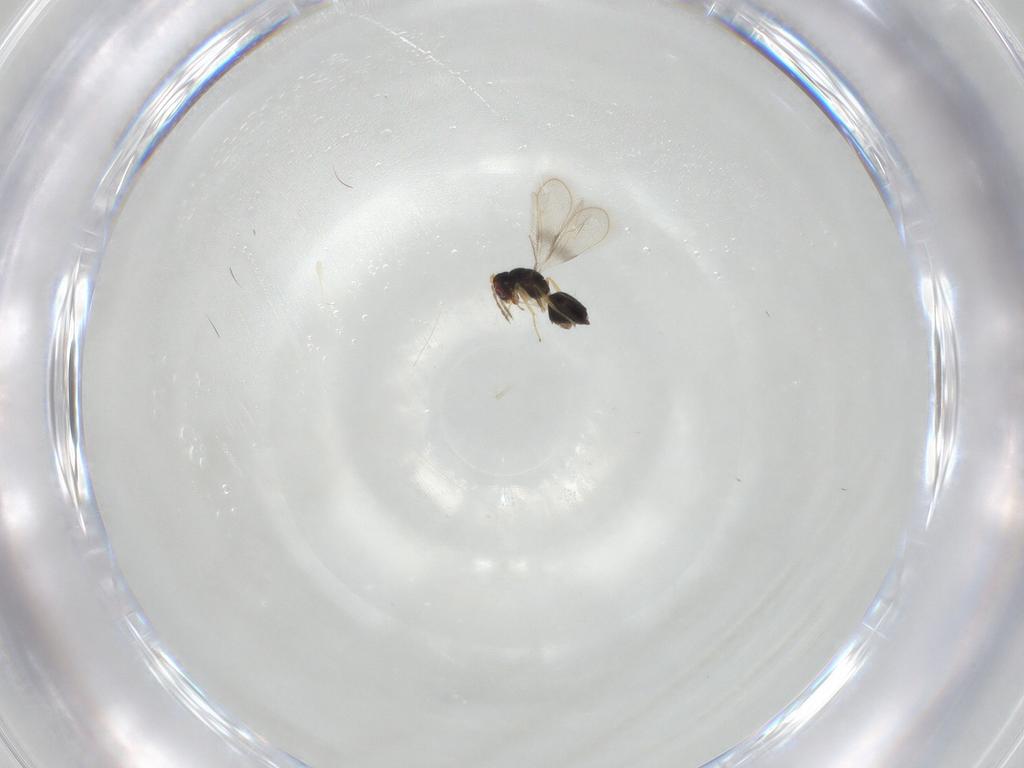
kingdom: Animalia
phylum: Arthropoda
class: Insecta
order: Hymenoptera
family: Eulophidae
